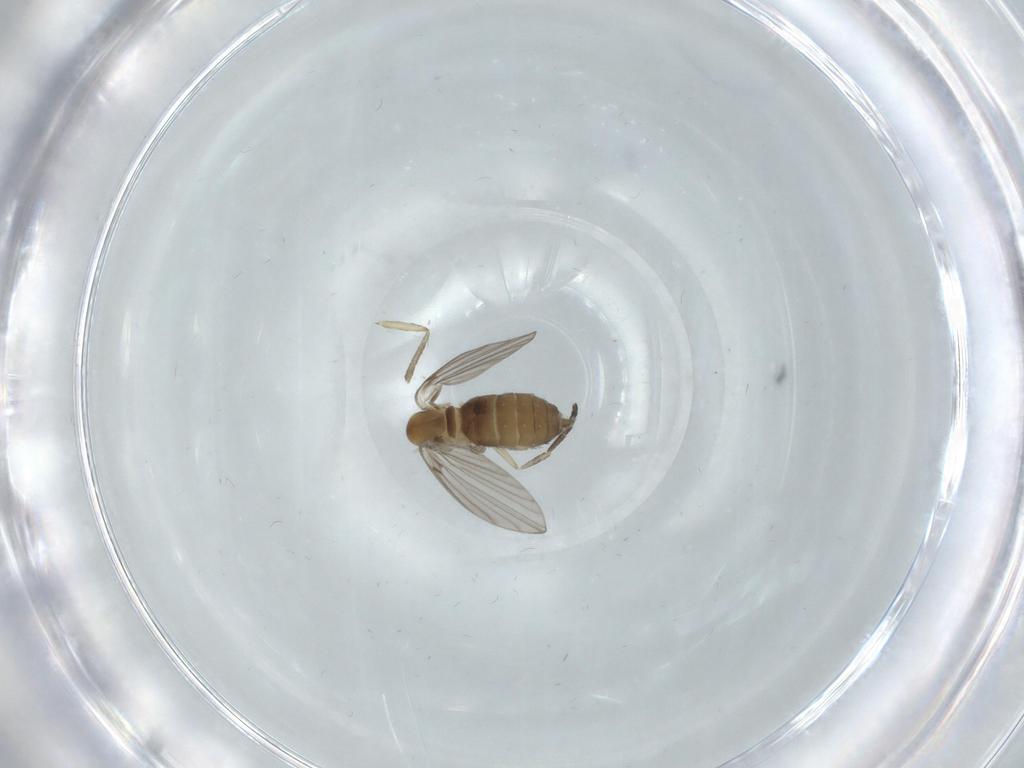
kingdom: Animalia
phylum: Arthropoda
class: Insecta
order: Diptera
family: Psychodidae
